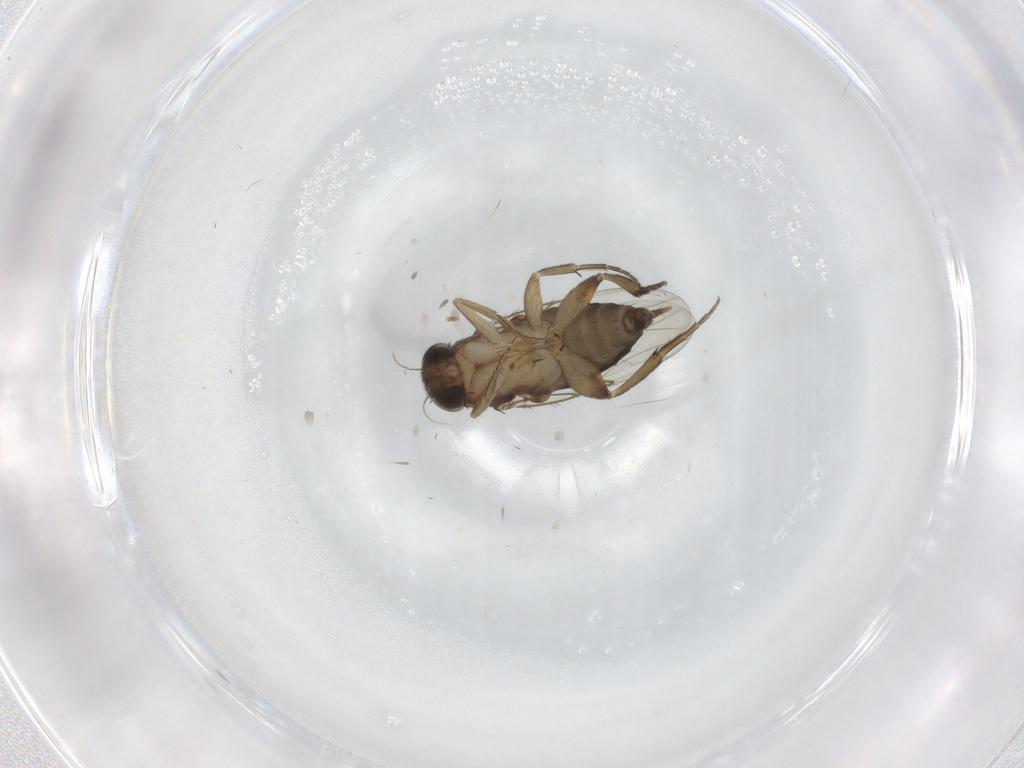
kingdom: Animalia
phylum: Arthropoda
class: Insecta
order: Diptera
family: Phoridae
